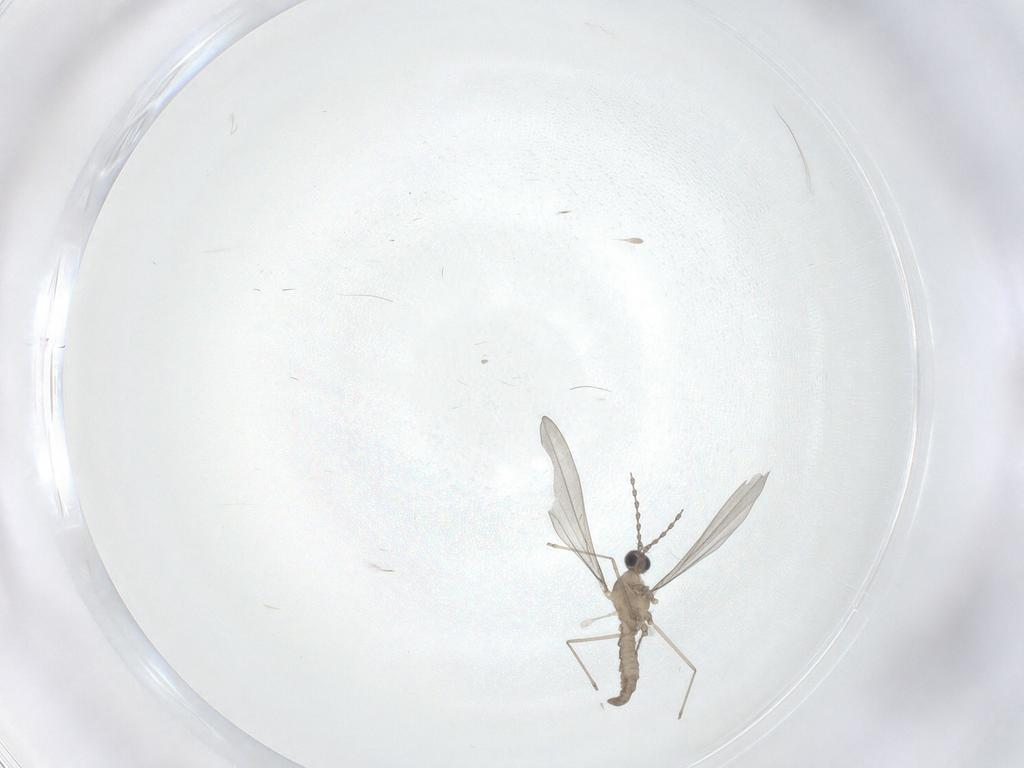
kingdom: Animalia
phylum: Arthropoda
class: Insecta
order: Diptera
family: Cecidomyiidae
